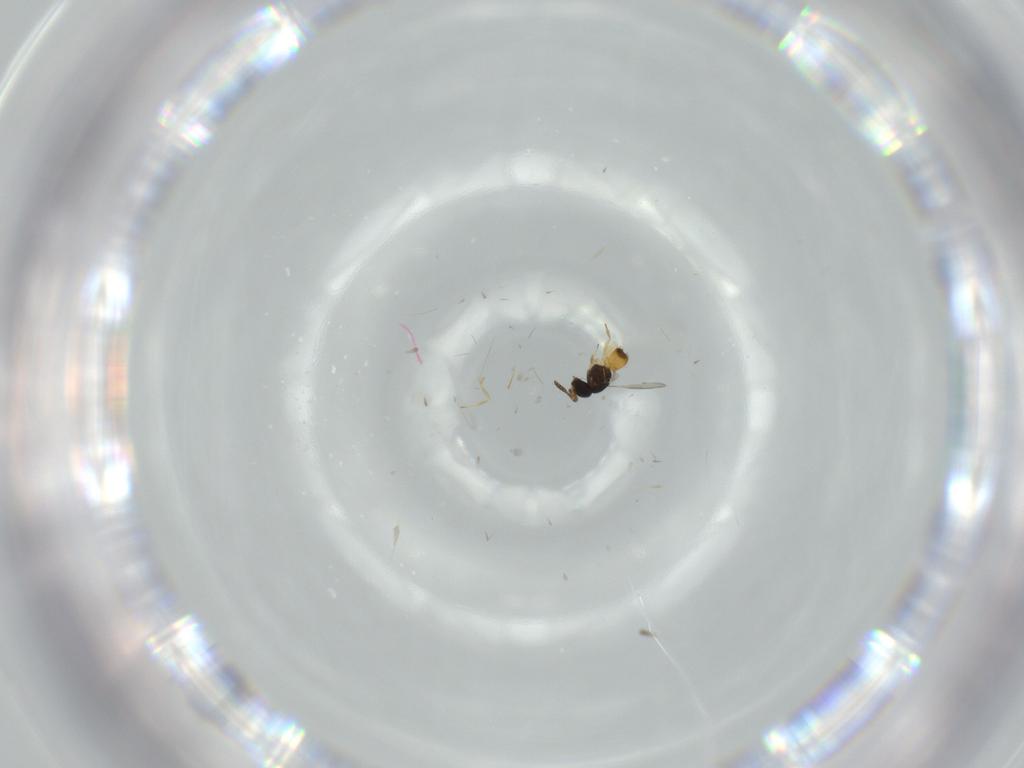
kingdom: Animalia
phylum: Arthropoda
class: Insecta
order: Hymenoptera
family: Scelionidae
